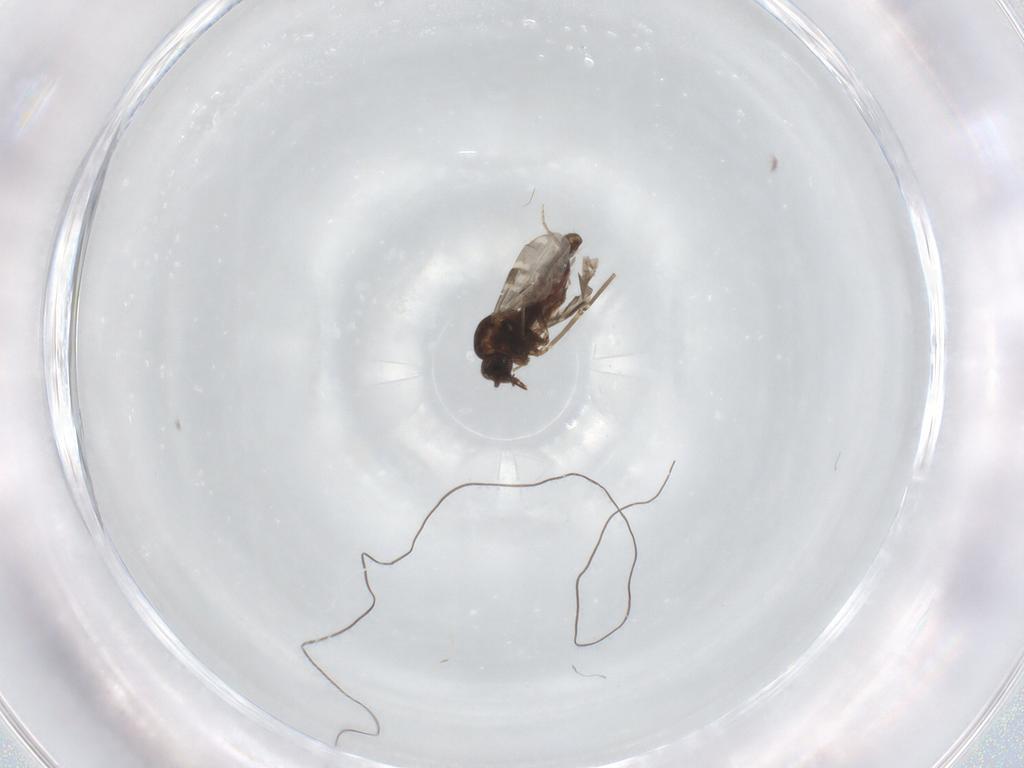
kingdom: Animalia
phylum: Arthropoda
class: Insecta
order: Diptera
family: Ceratopogonidae
